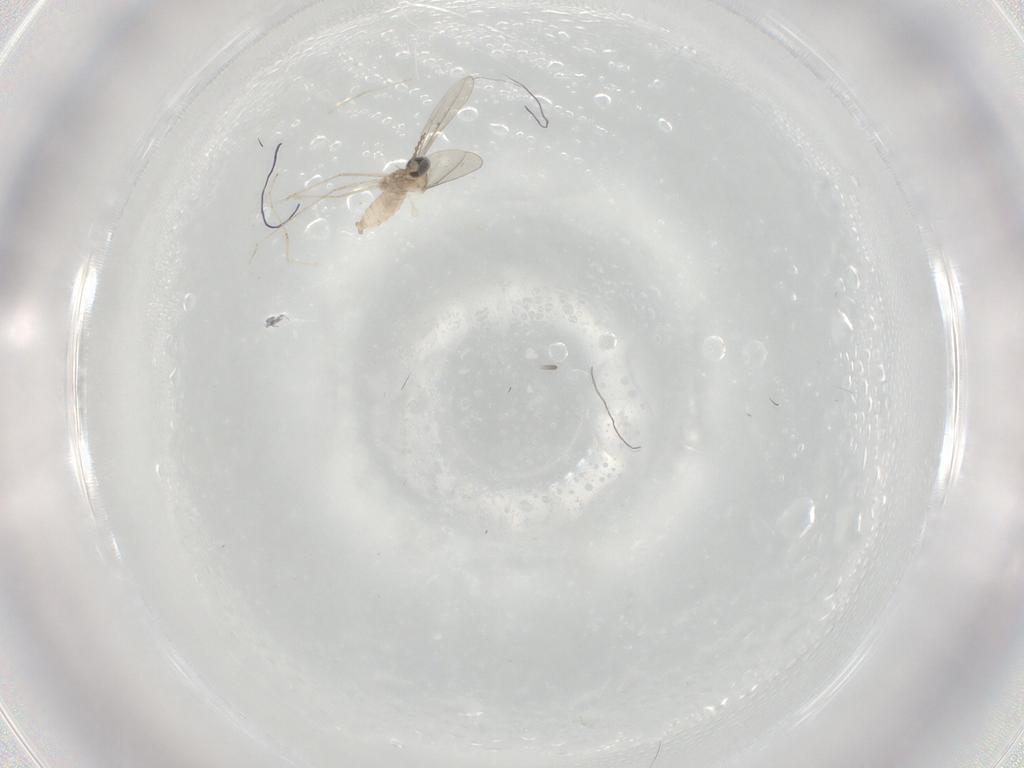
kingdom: Animalia
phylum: Arthropoda
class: Insecta
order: Diptera
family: Cecidomyiidae
